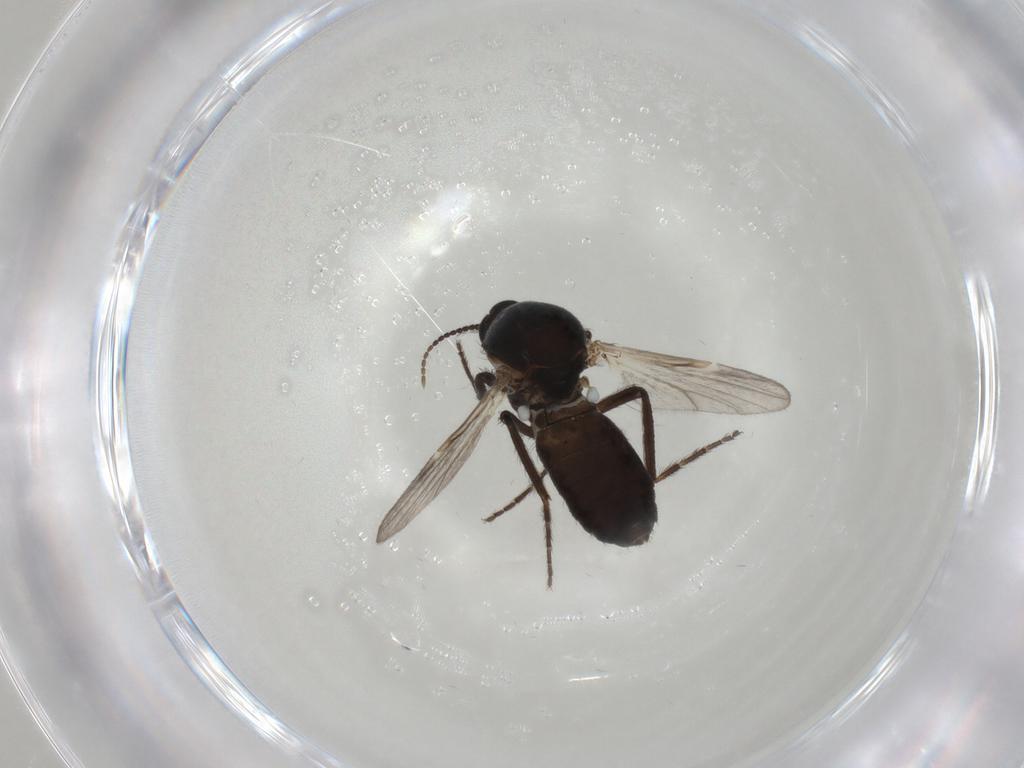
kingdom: Animalia
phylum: Arthropoda
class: Insecta
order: Diptera
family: Ceratopogonidae
